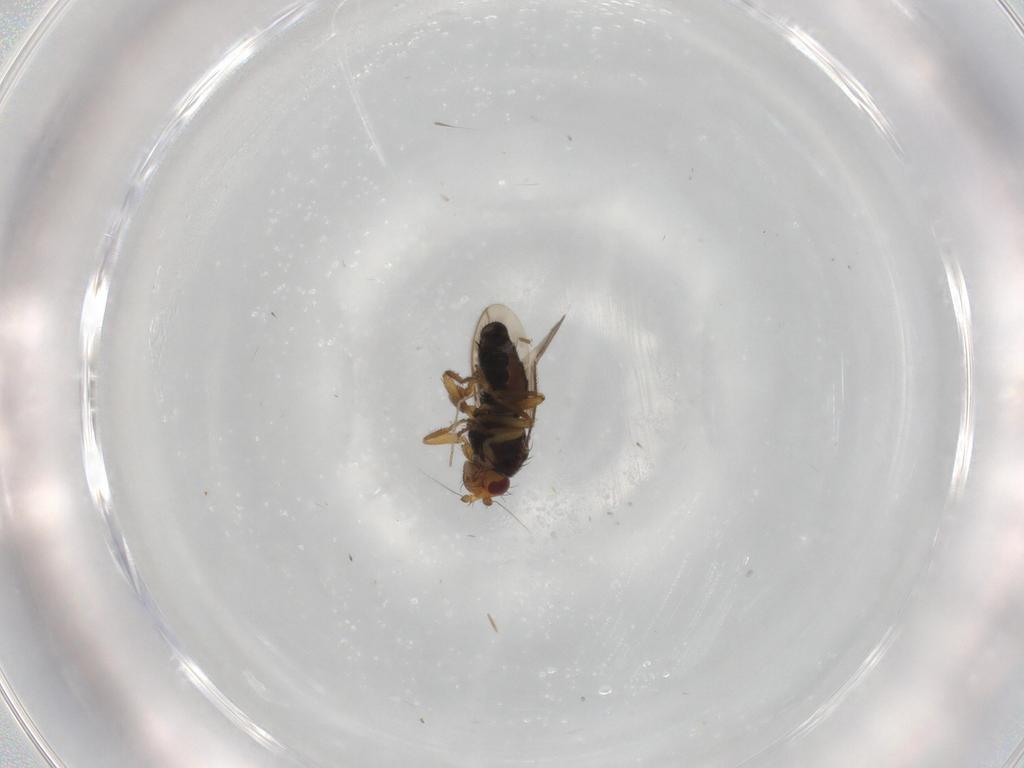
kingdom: Animalia
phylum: Arthropoda
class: Insecta
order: Diptera
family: Sphaeroceridae
